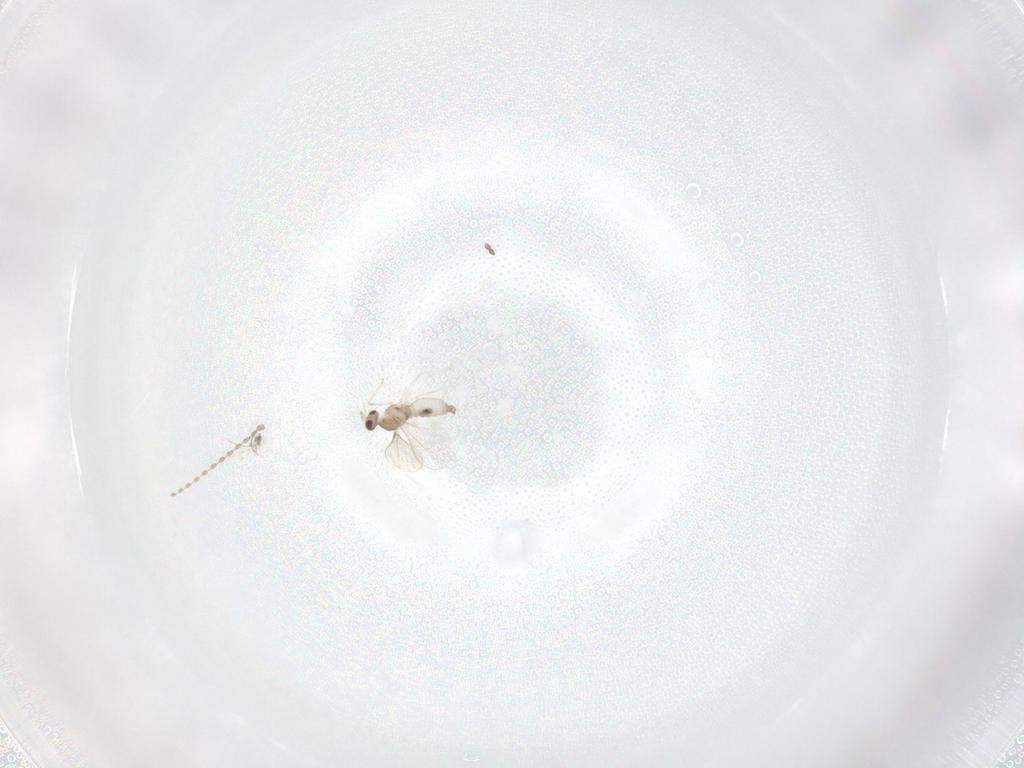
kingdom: Animalia
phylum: Arthropoda
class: Insecta
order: Diptera
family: Cecidomyiidae
